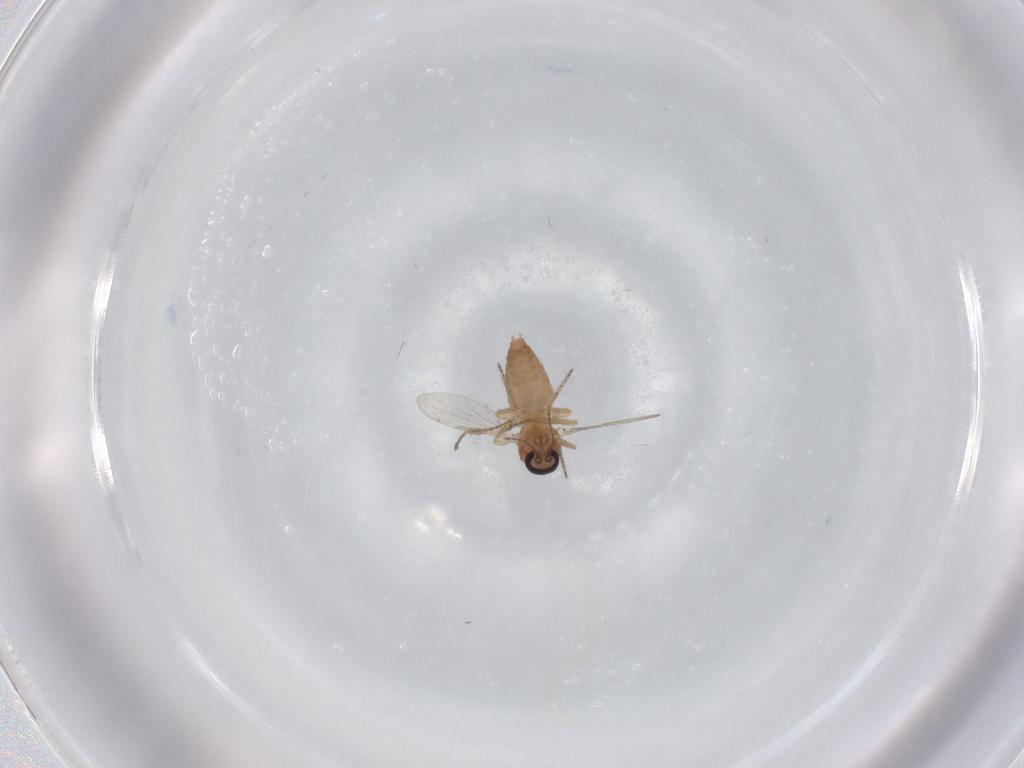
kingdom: Animalia
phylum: Arthropoda
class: Insecta
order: Diptera
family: Ceratopogonidae
